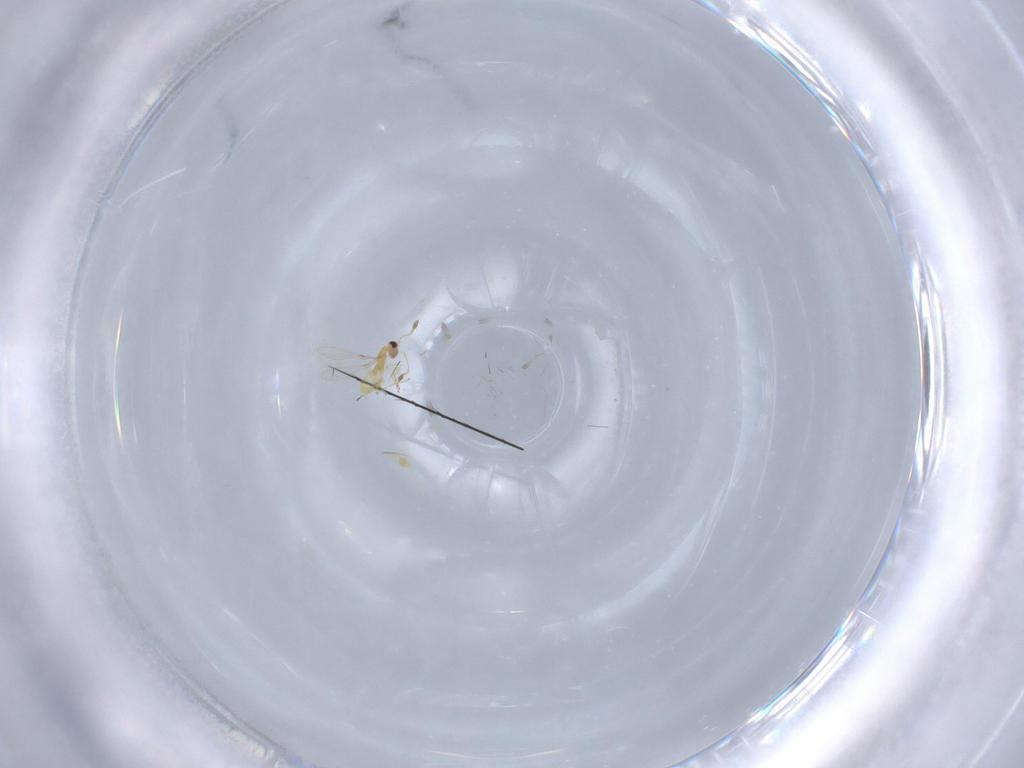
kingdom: Animalia
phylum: Arthropoda
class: Insecta
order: Hymenoptera
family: Mymaridae
